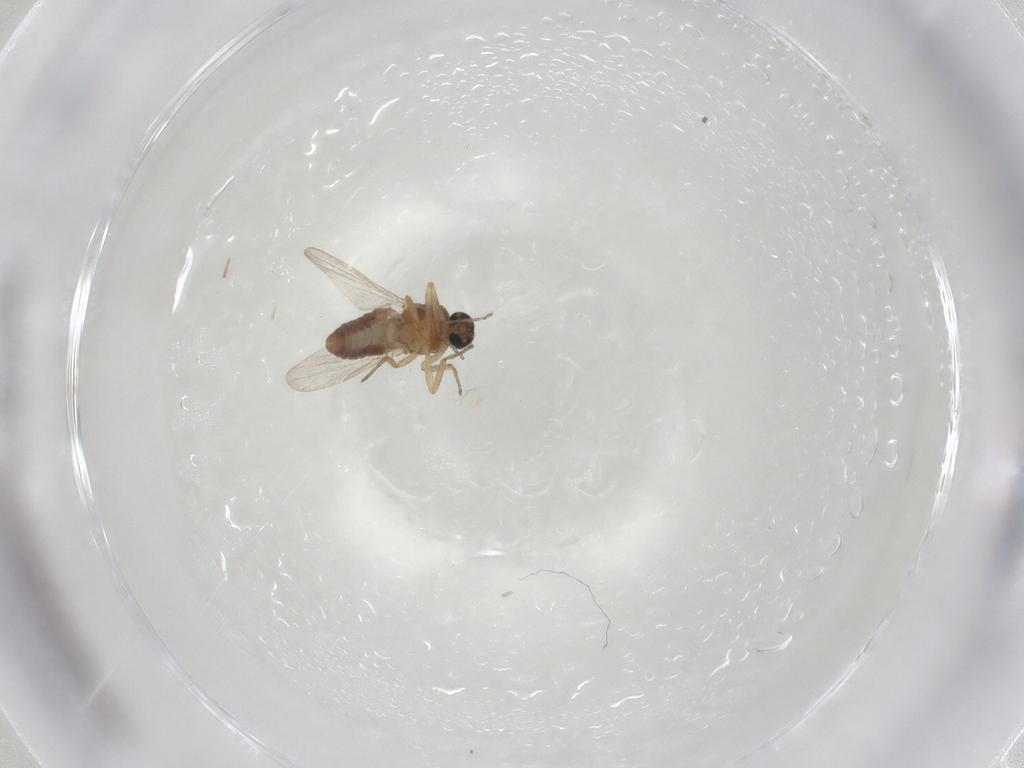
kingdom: Animalia
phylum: Arthropoda
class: Insecta
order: Diptera
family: Ceratopogonidae
